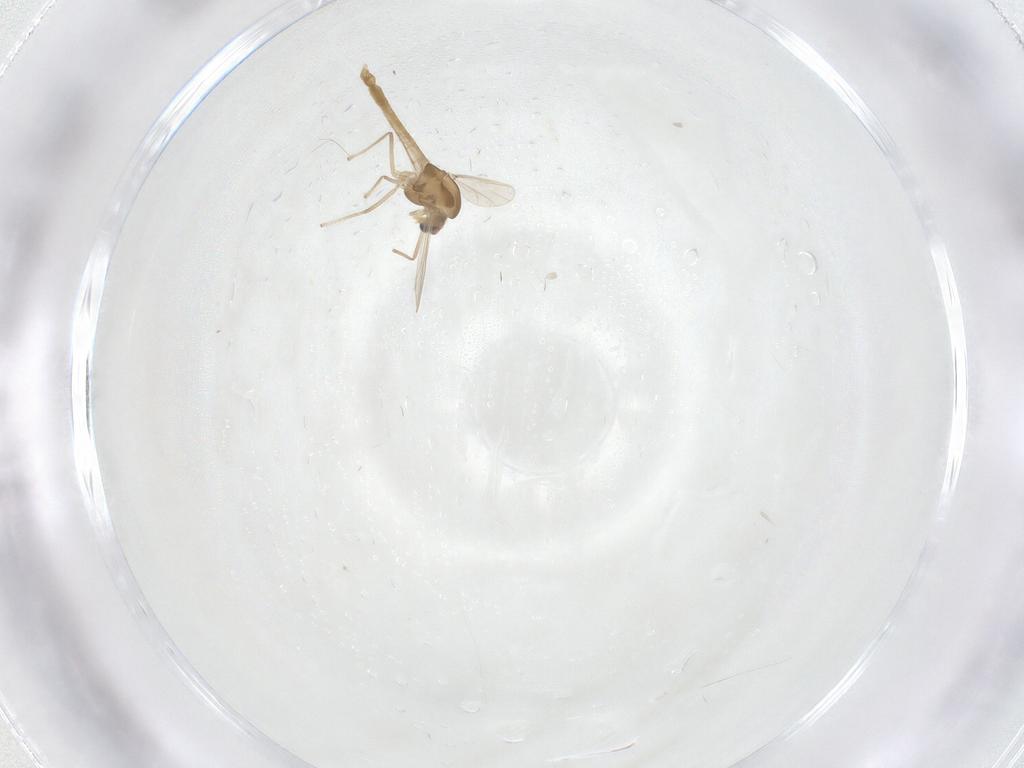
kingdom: Animalia
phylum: Arthropoda
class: Insecta
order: Diptera
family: Chironomidae
